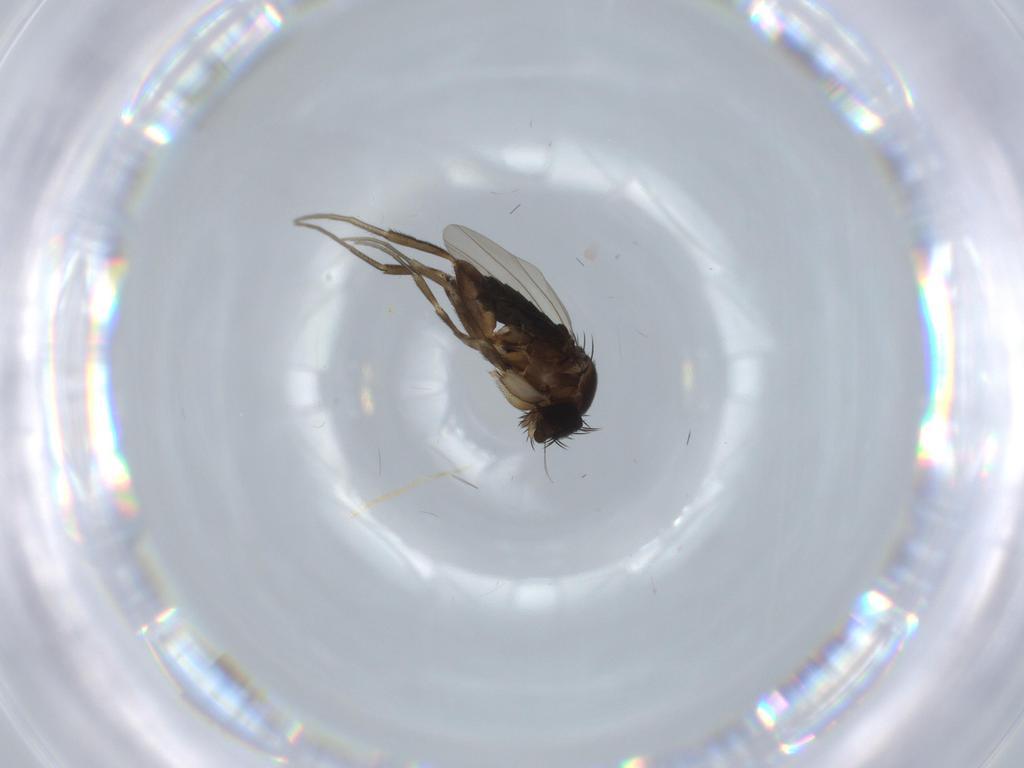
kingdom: Animalia
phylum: Arthropoda
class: Insecta
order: Diptera
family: Phoridae
